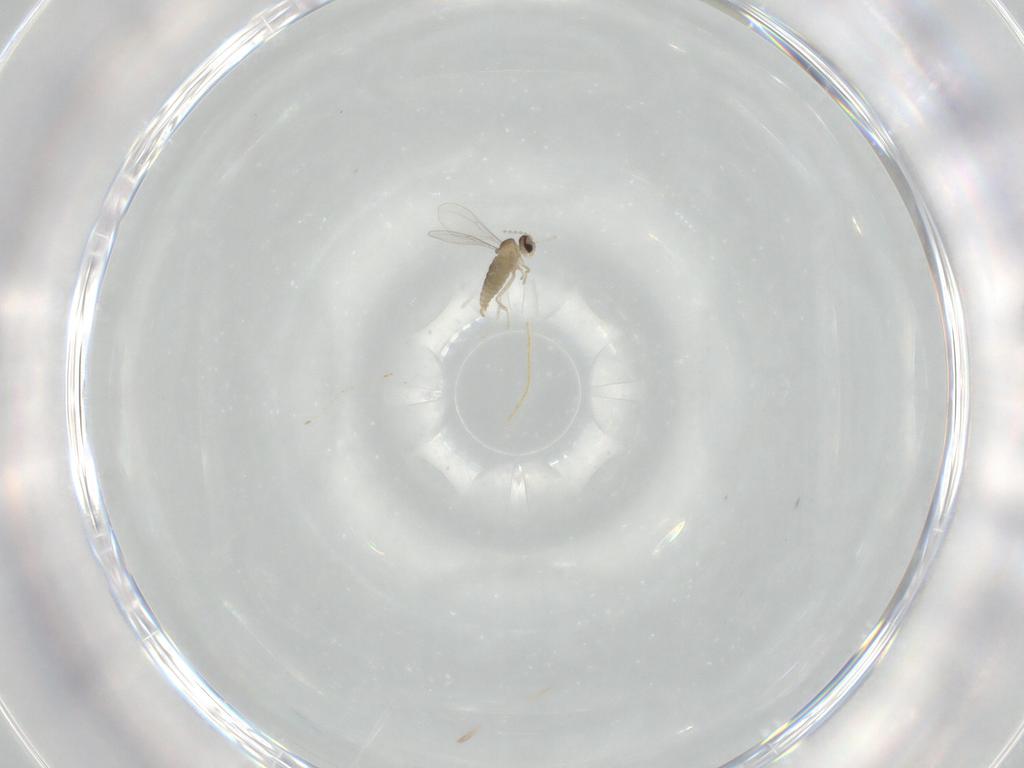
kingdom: Animalia
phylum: Arthropoda
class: Insecta
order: Diptera
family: Cecidomyiidae
